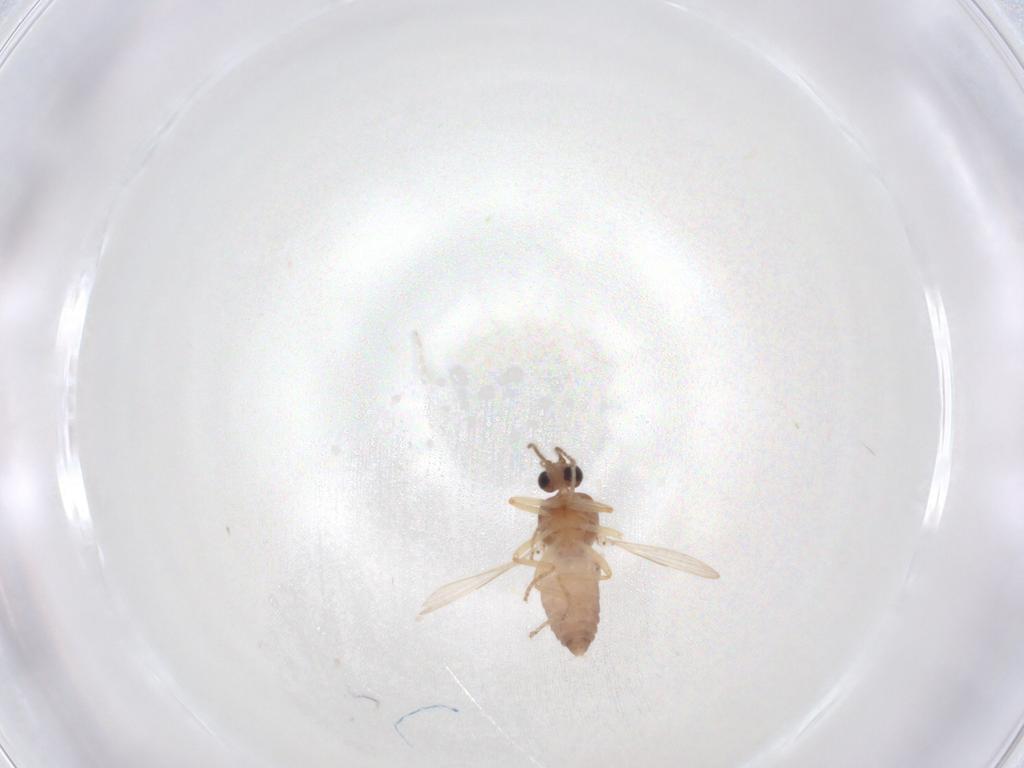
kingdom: Animalia
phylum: Arthropoda
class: Insecta
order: Diptera
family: Ceratopogonidae
